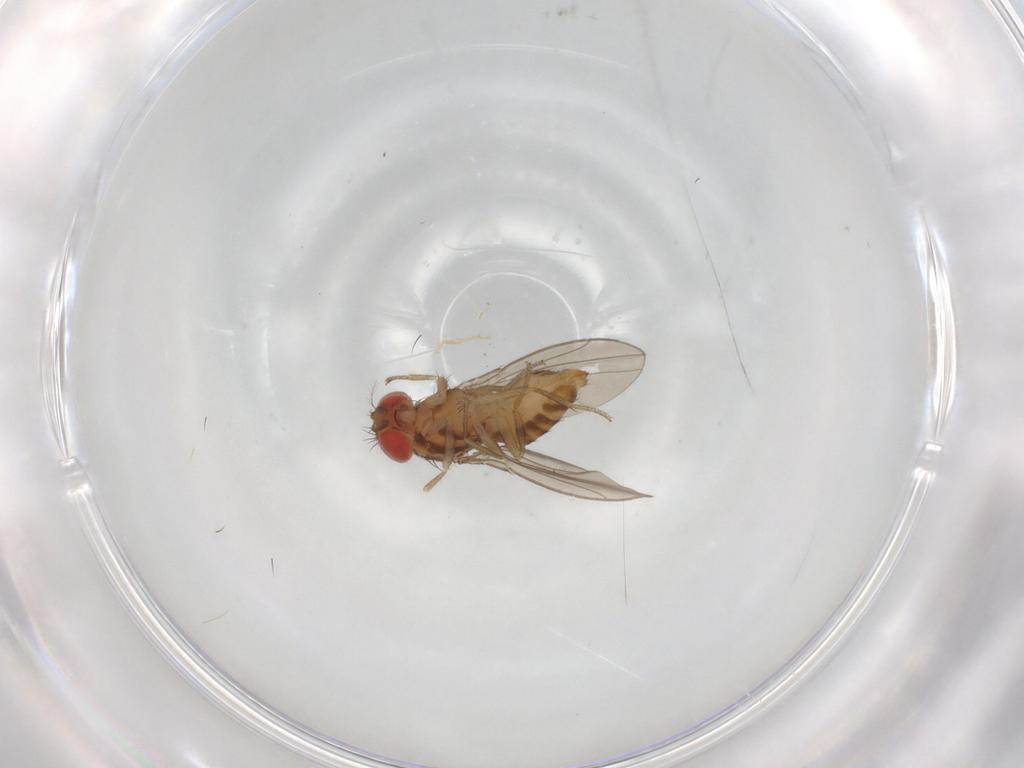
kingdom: Animalia
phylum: Arthropoda
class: Insecta
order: Diptera
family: Drosophilidae
